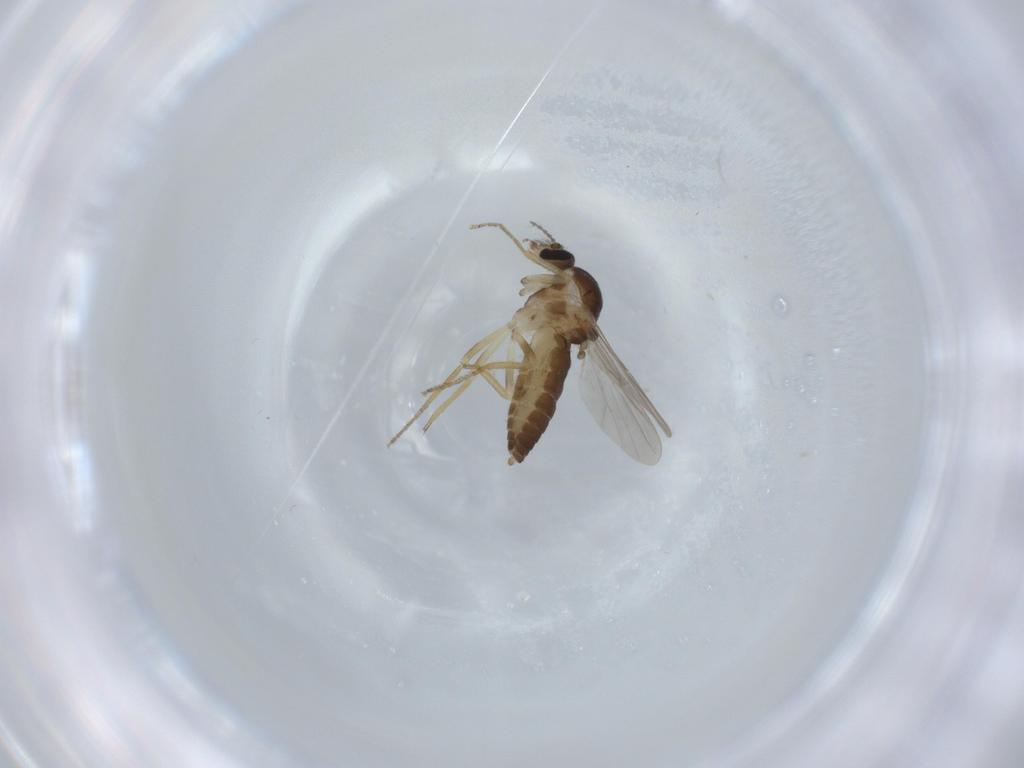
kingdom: Animalia
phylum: Arthropoda
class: Insecta
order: Diptera
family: Ceratopogonidae
